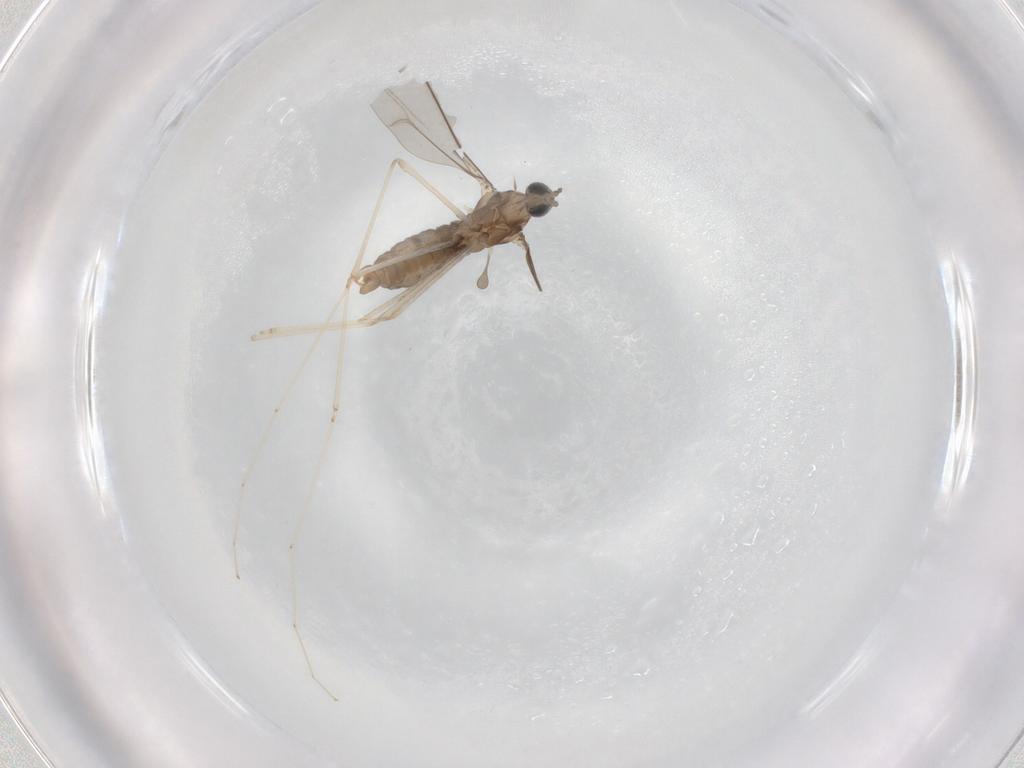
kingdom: Animalia
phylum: Arthropoda
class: Insecta
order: Diptera
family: Cecidomyiidae
